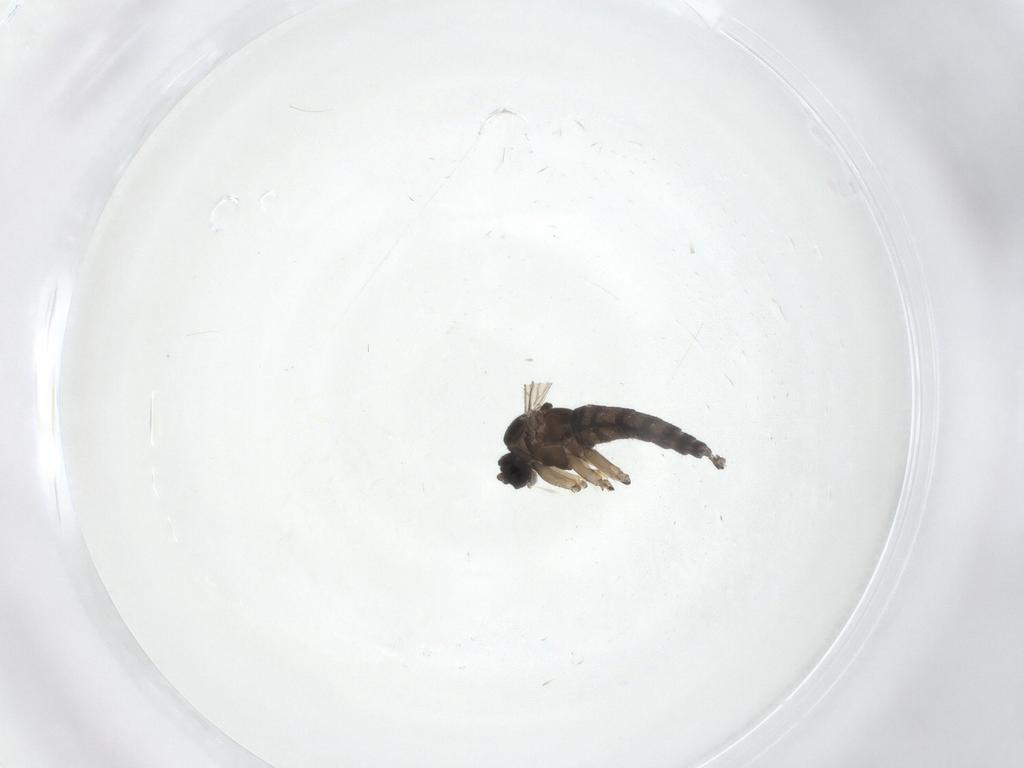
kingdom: Animalia
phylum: Arthropoda
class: Insecta
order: Diptera
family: Sciaridae
